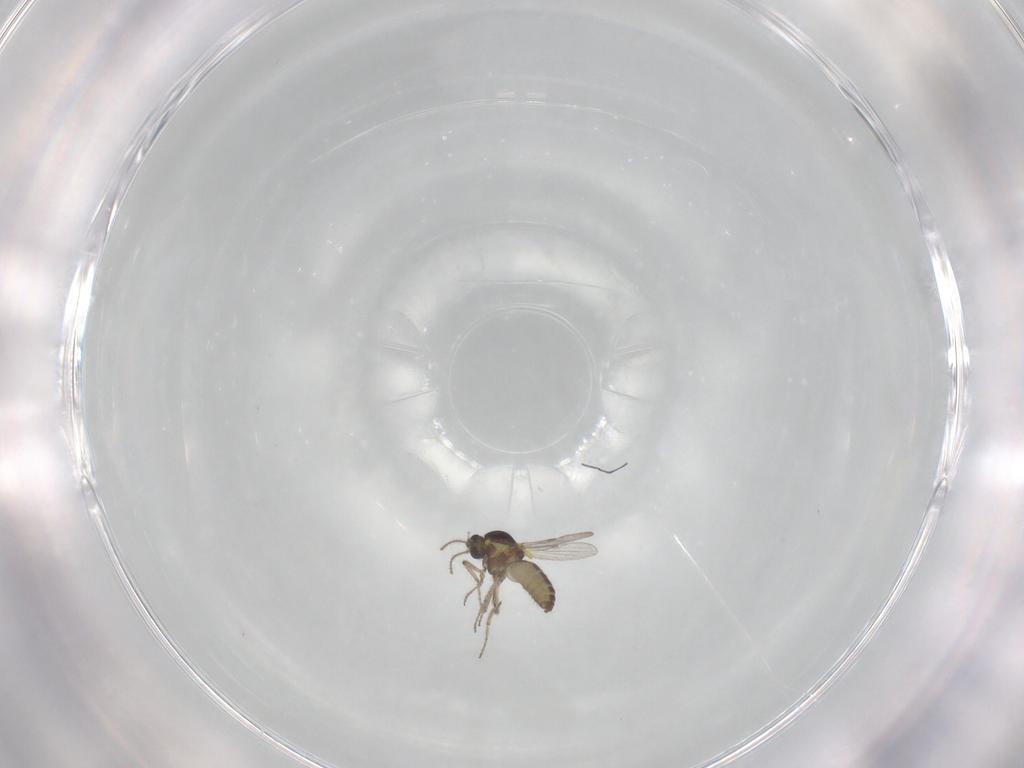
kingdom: Animalia
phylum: Arthropoda
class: Insecta
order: Diptera
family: Ceratopogonidae
